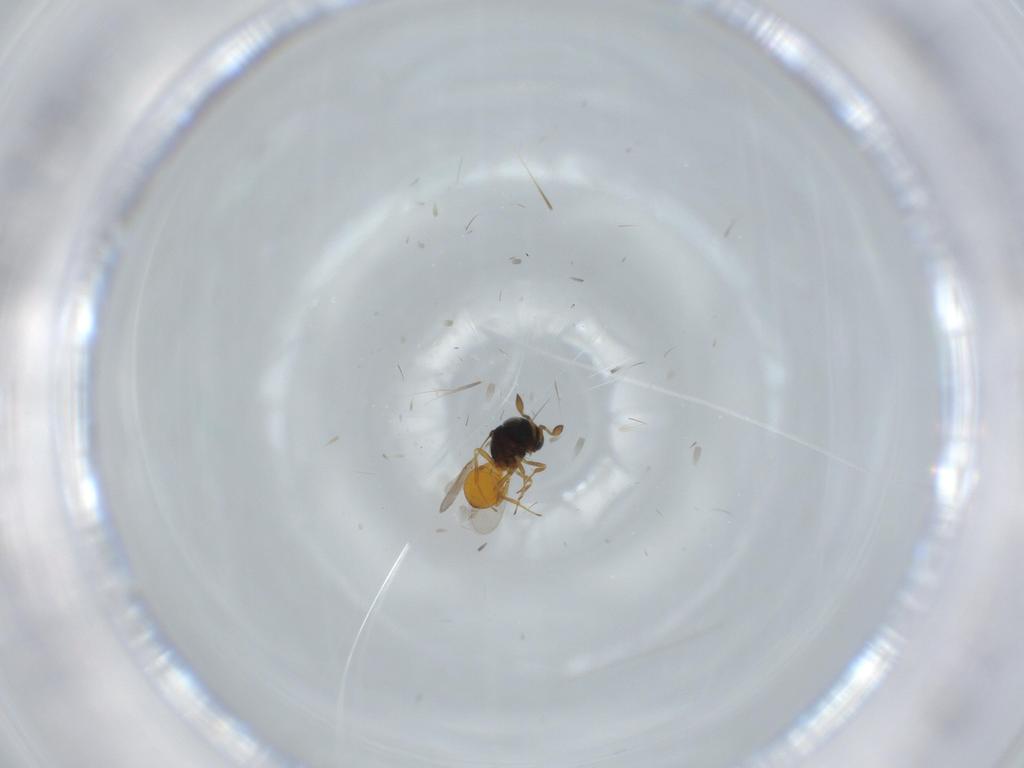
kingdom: Animalia
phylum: Arthropoda
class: Insecta
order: Hymenoptera
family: Scelionidae
